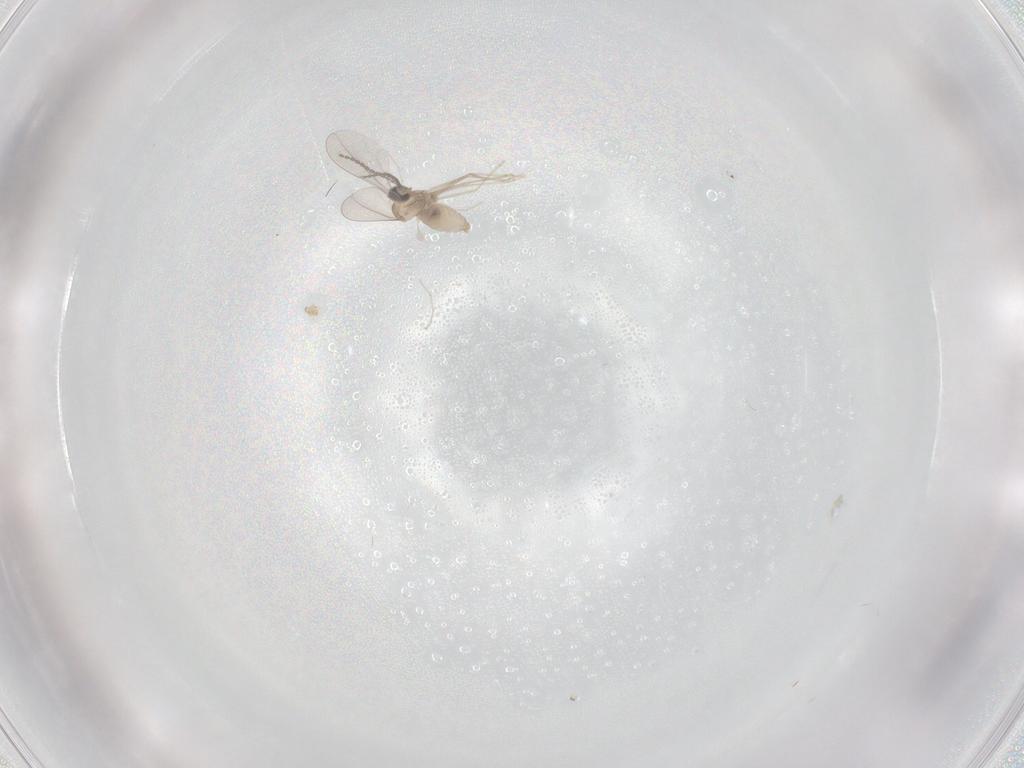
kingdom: Animalia
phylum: Arthropoda
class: Insecta
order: Diptera
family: Cecidomyiidae
